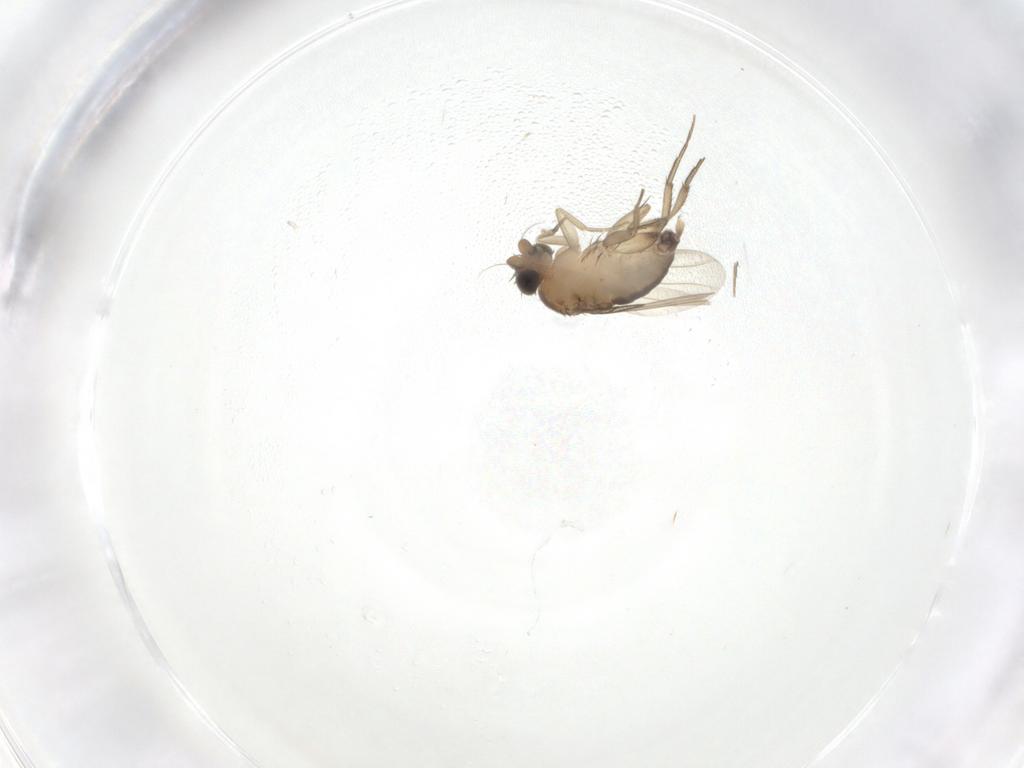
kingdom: Animalia
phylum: Arthropoda
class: Insecta
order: Diptera
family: Phoridae
